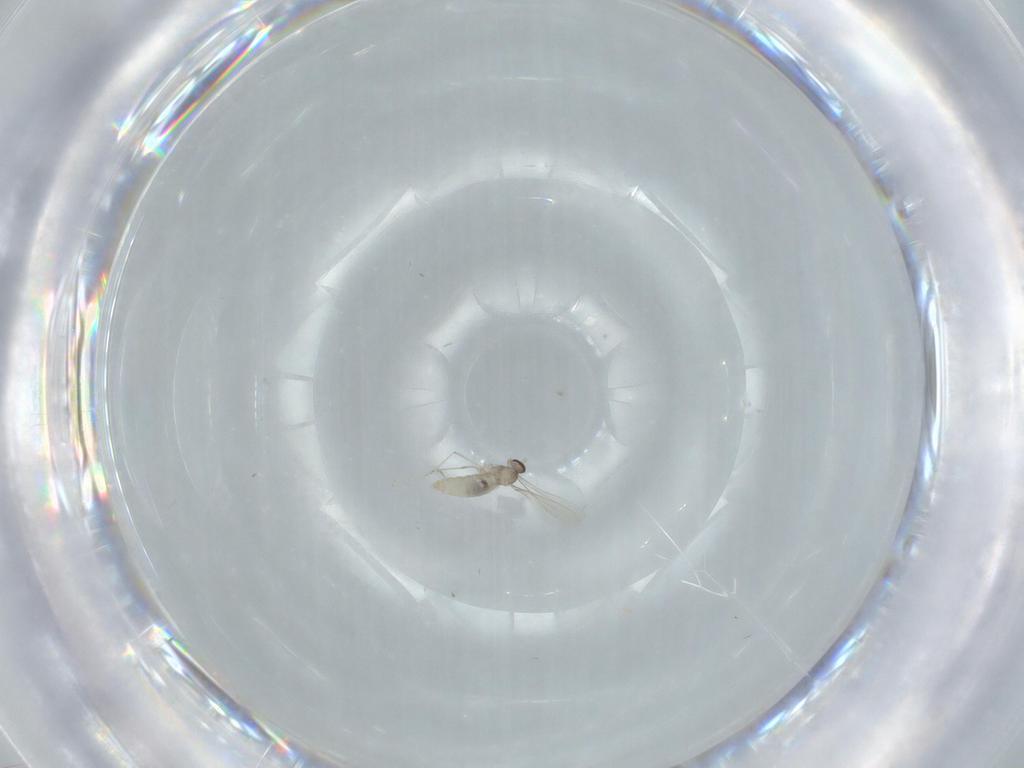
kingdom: Animalia
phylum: Arthropoda
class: Insecta
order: Diptera
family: Cecidomyiidae
